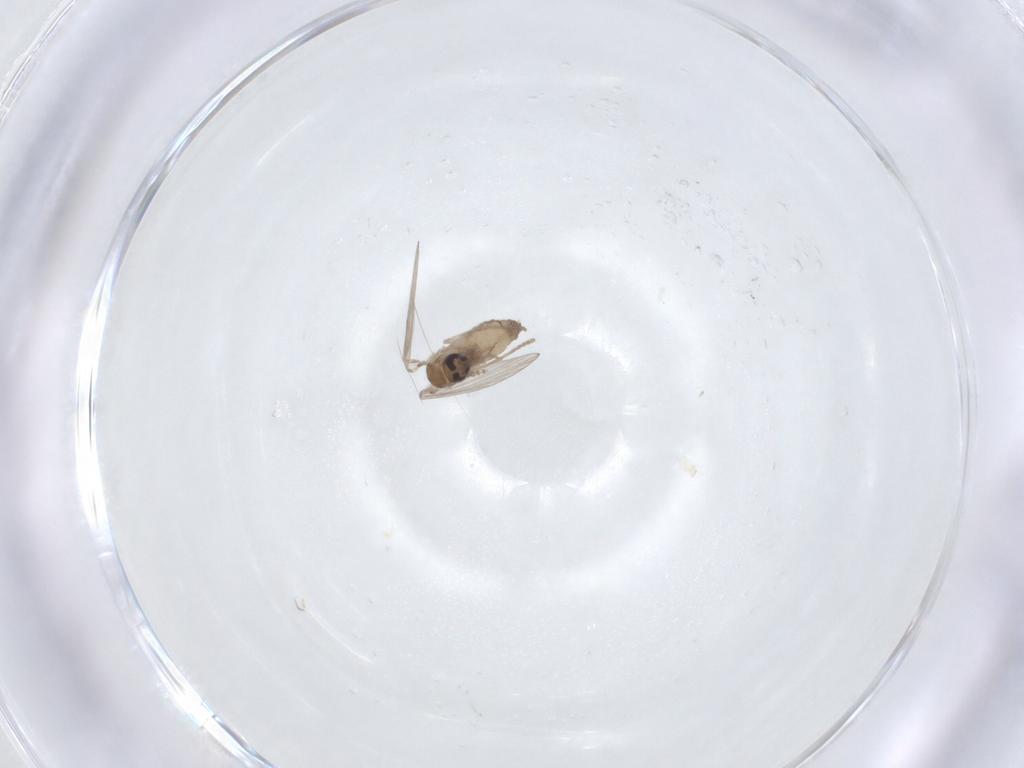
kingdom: Animalia
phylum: Arthropoda
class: Insecta
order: Diptera
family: Psychodidae
